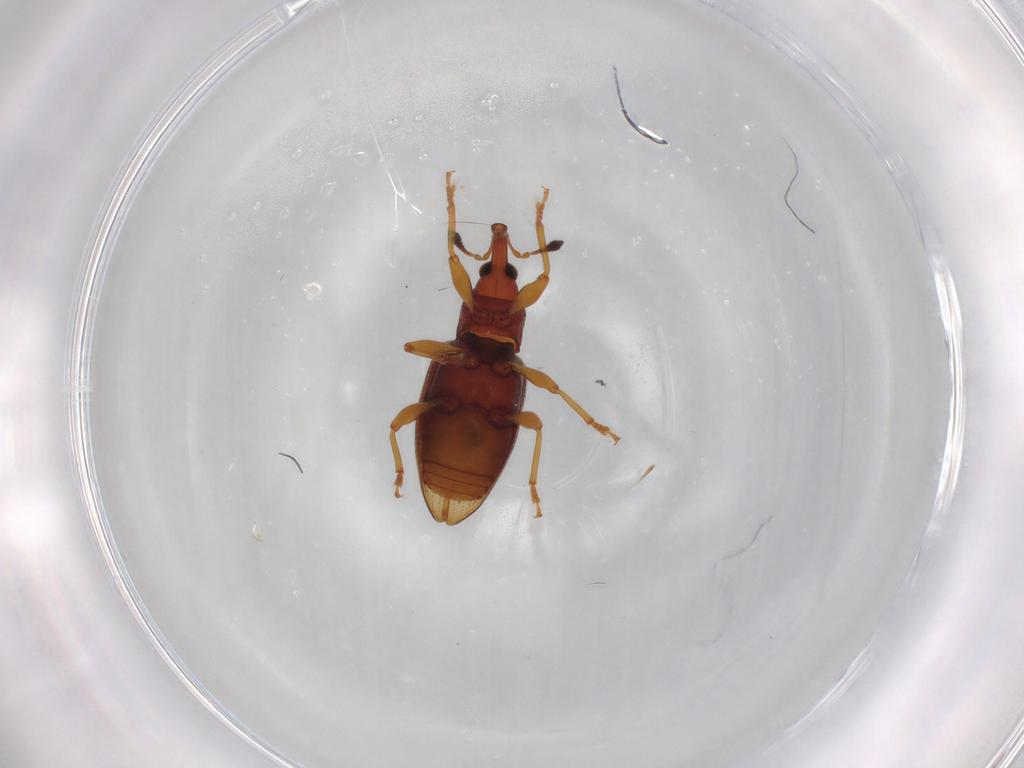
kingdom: Animalia
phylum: Arthropoda
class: Insecta
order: Coleoptera
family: Curculionidae
